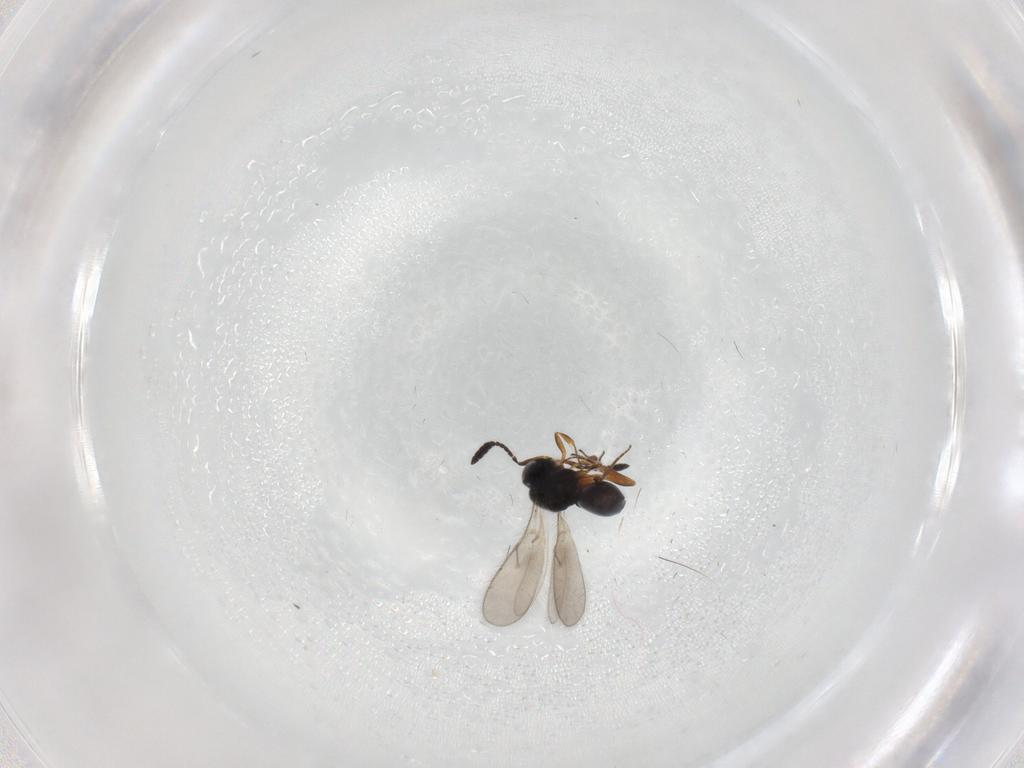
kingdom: Animalia
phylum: Arthropoda
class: Insecta
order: Hymenoptera
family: Scelionidae
